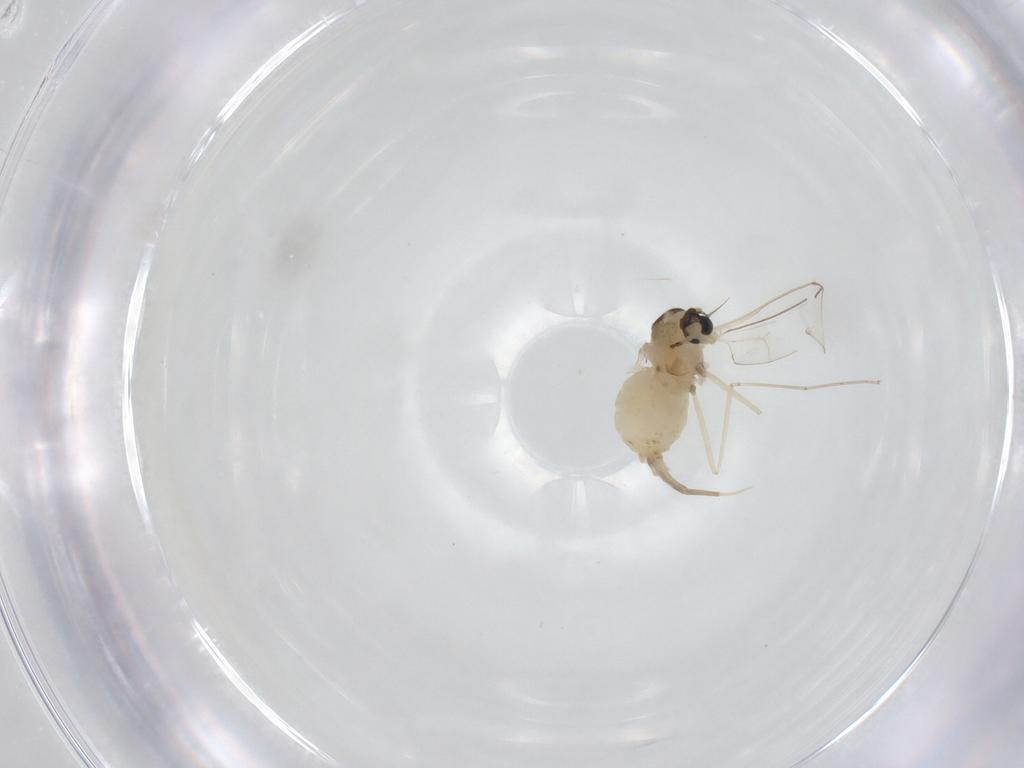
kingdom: Animalia
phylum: Arthropoda
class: Insecta
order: Diptera
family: Cecidomyiidae
